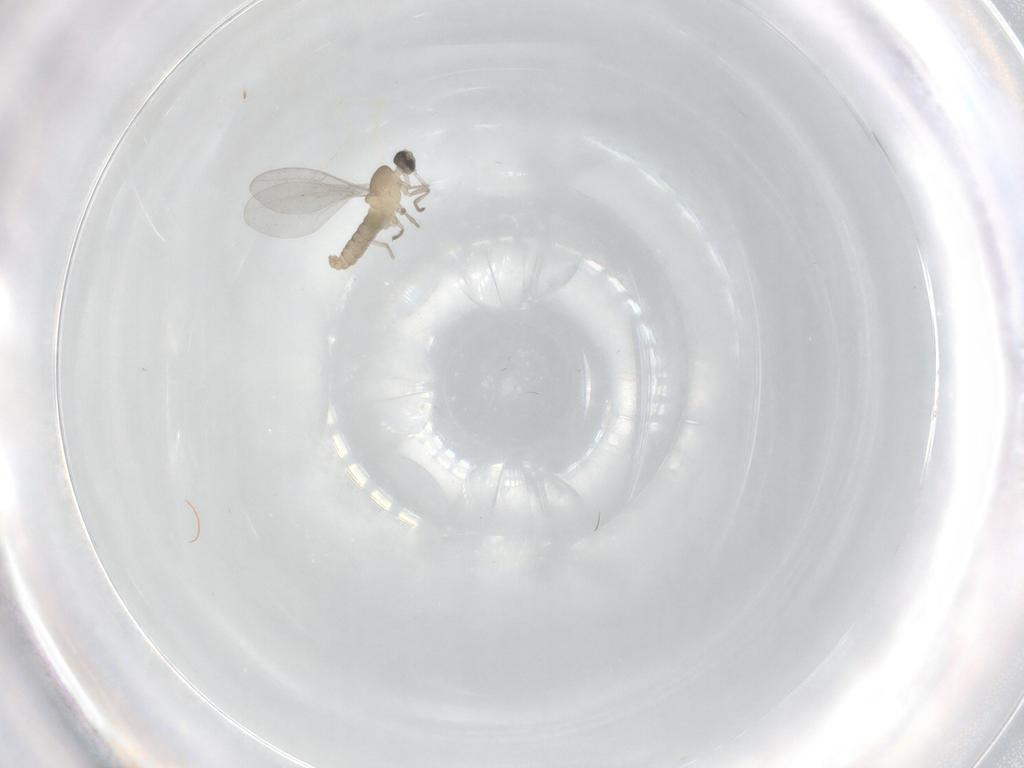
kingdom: Animalia
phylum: Arthropoda
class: Insecta
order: Diptera
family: Cecidomyiidae
